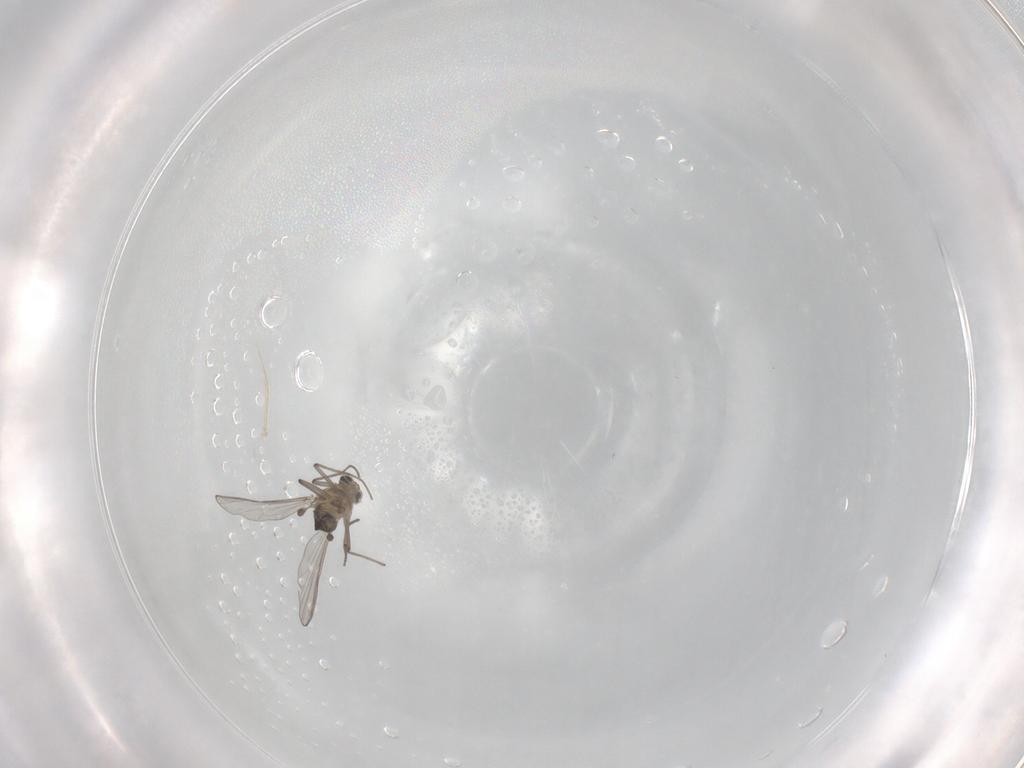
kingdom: Animalia
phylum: Arthropoda
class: Insecta
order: Diptera
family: Chironomidae
